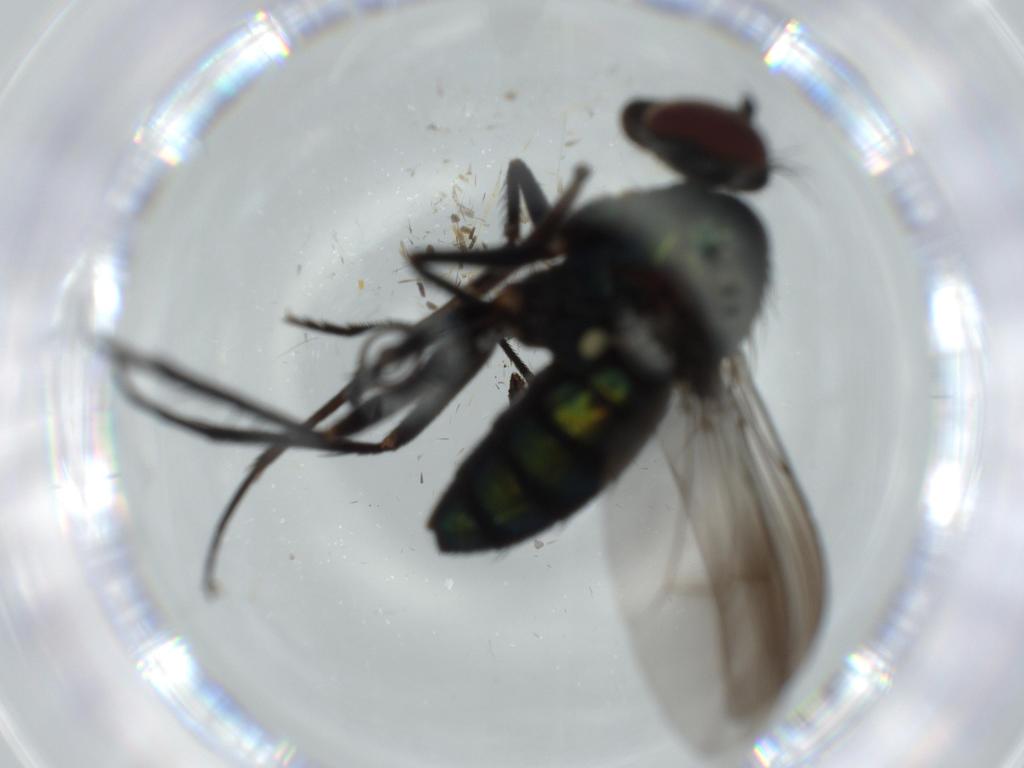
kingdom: Animalia
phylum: Arthropoda
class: Insecta
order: Diptera
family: Dolichopodidae
